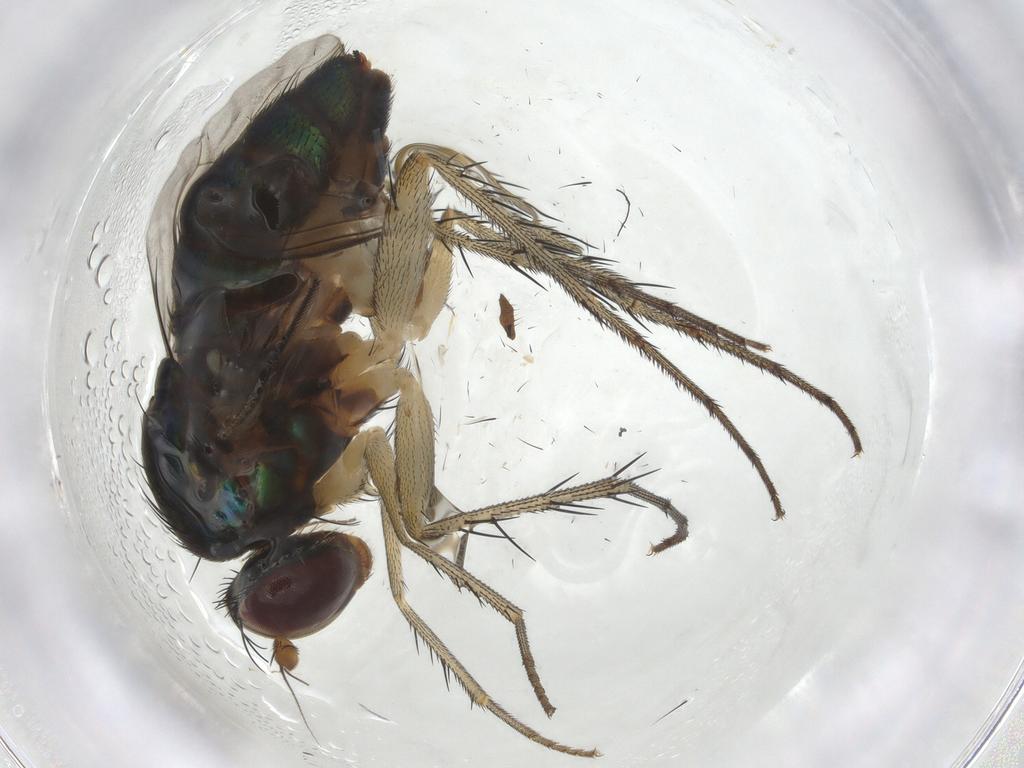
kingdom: Animalia
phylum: Arthropoda
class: Insecta
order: Diptera
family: Dolichopodidae
